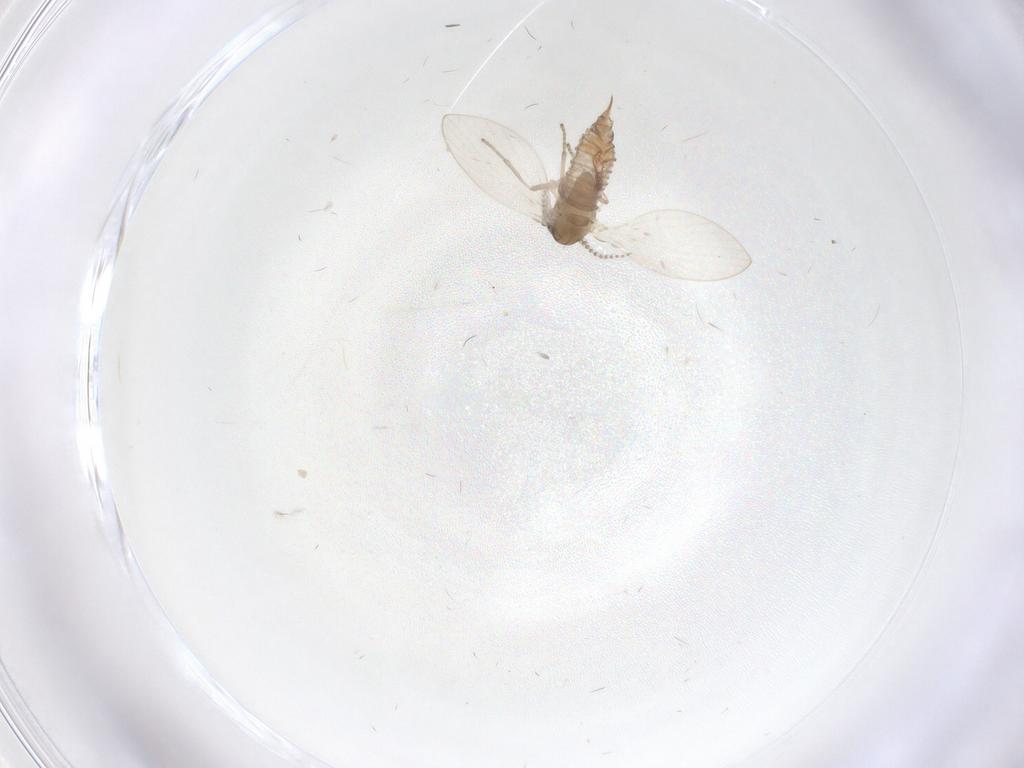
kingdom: Animalia
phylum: Arthropoda
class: Insecta
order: Diptera
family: Psychodidae
